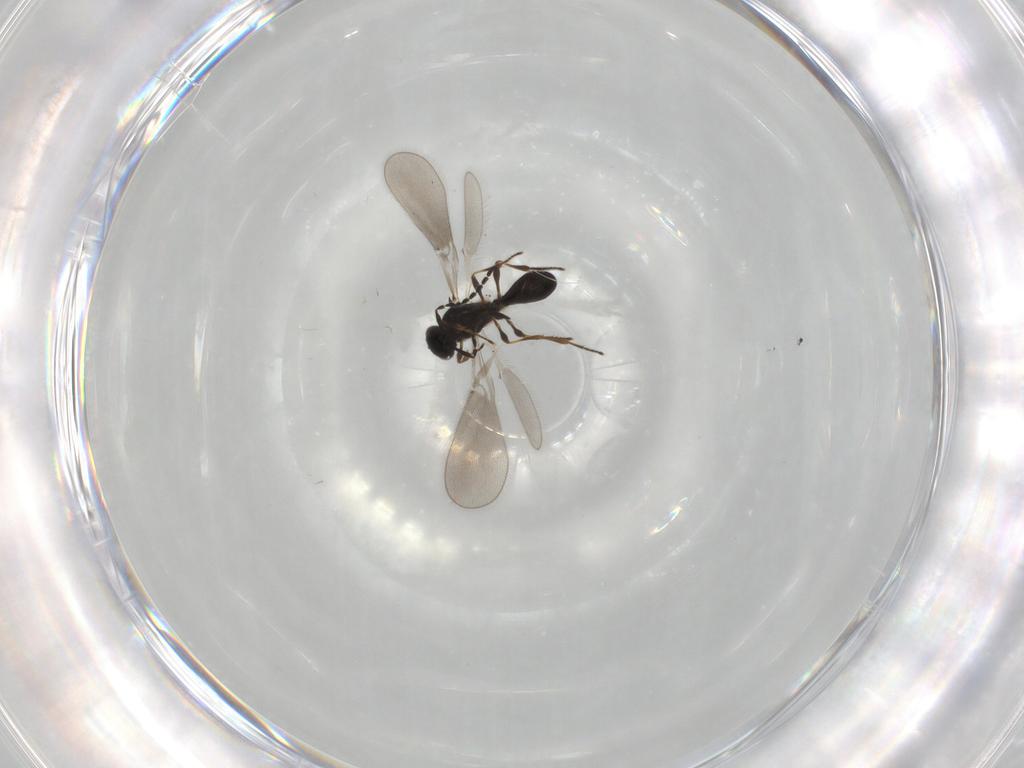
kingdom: Animalia
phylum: Arthropoda
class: Insecta
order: Hymenoptera
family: Platygastridae
